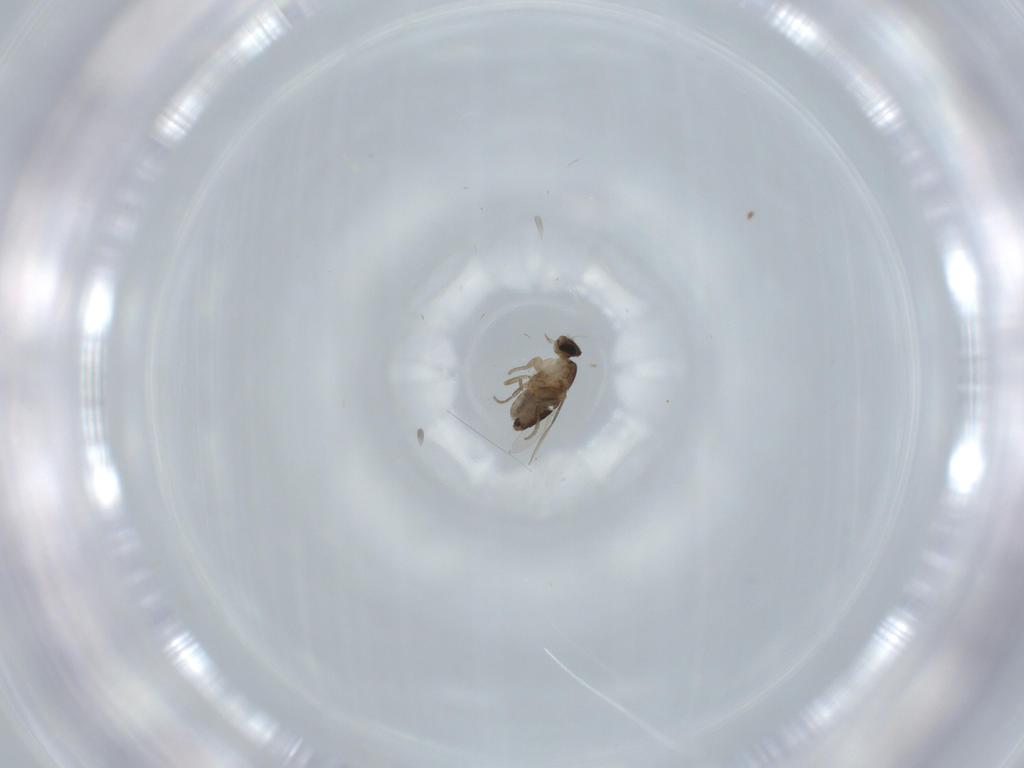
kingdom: Animalia
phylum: Arthropoda
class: Insecta
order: Diptera
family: Phoridae
